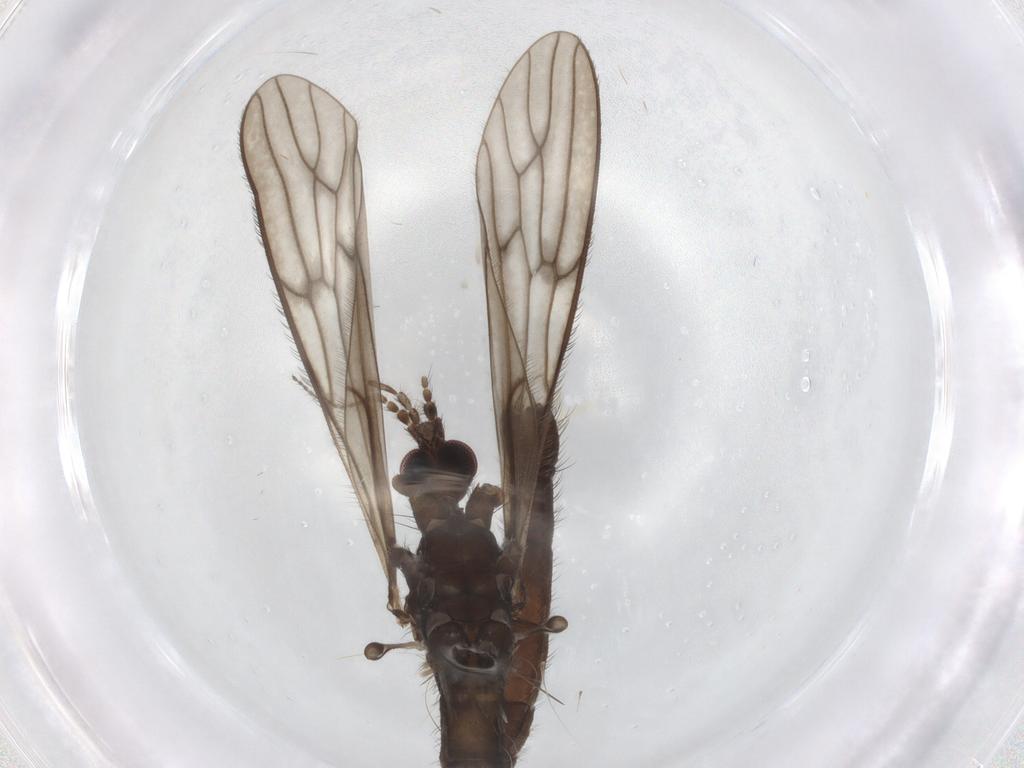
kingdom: Animalia
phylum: Arthropoda
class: Insecta
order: Diptera
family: Limoniidae
